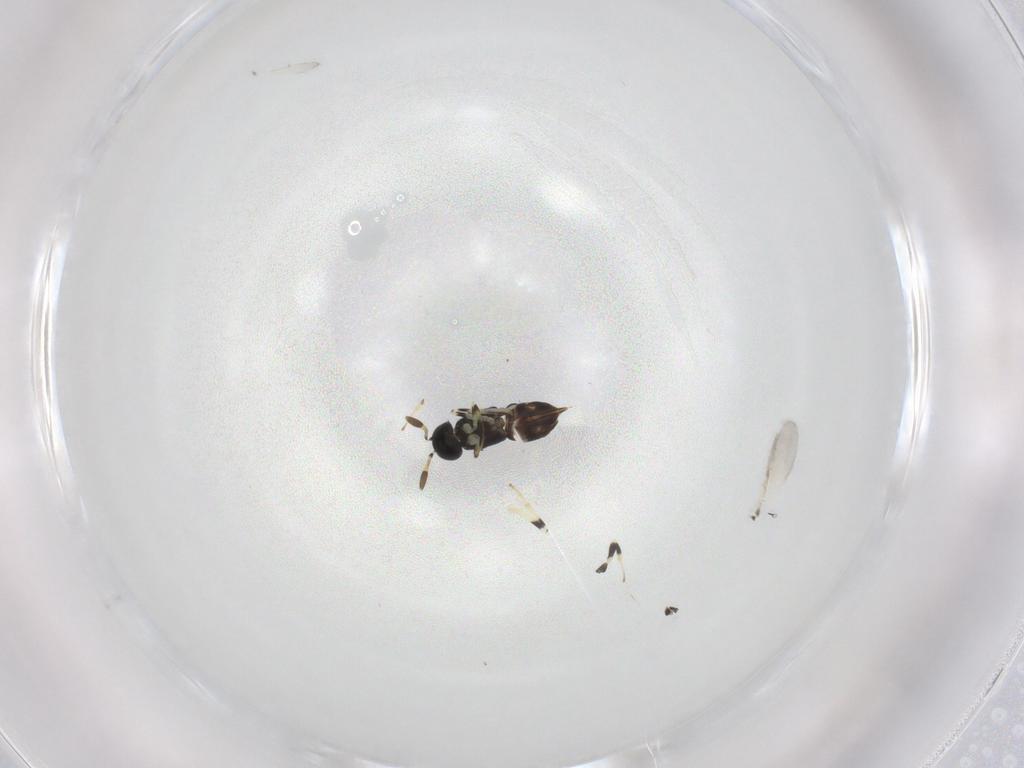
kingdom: Animalia
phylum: Arthropoda
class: Insecta
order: Hymenoptera
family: Encyrtidae
